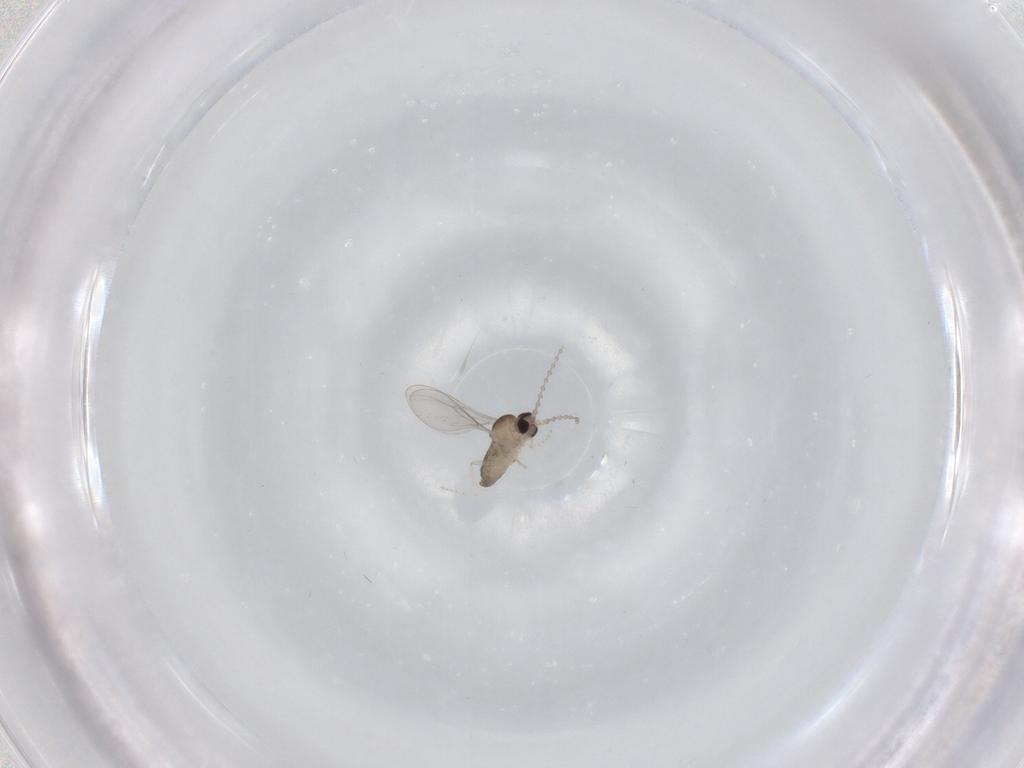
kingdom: Animalia
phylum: Arthropoda
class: Insecta
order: Diptera
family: Cecidomyiidae
